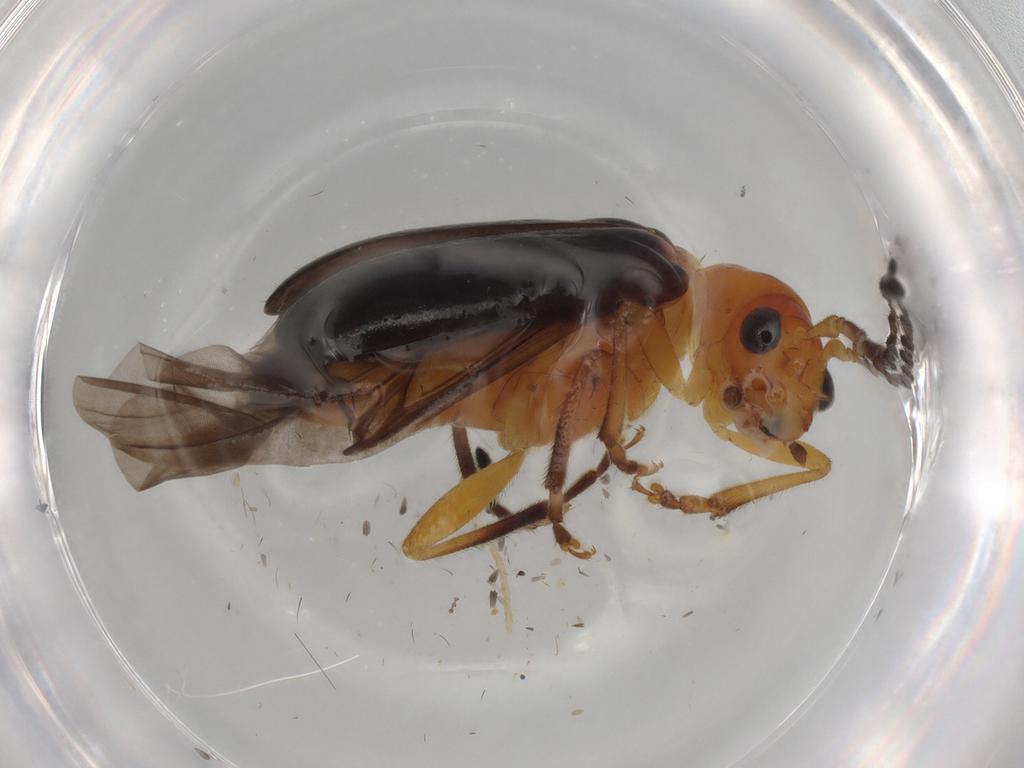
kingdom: Animalia
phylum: Arthropoda
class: Insecta
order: Coleoptera
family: Chrysomelidae
